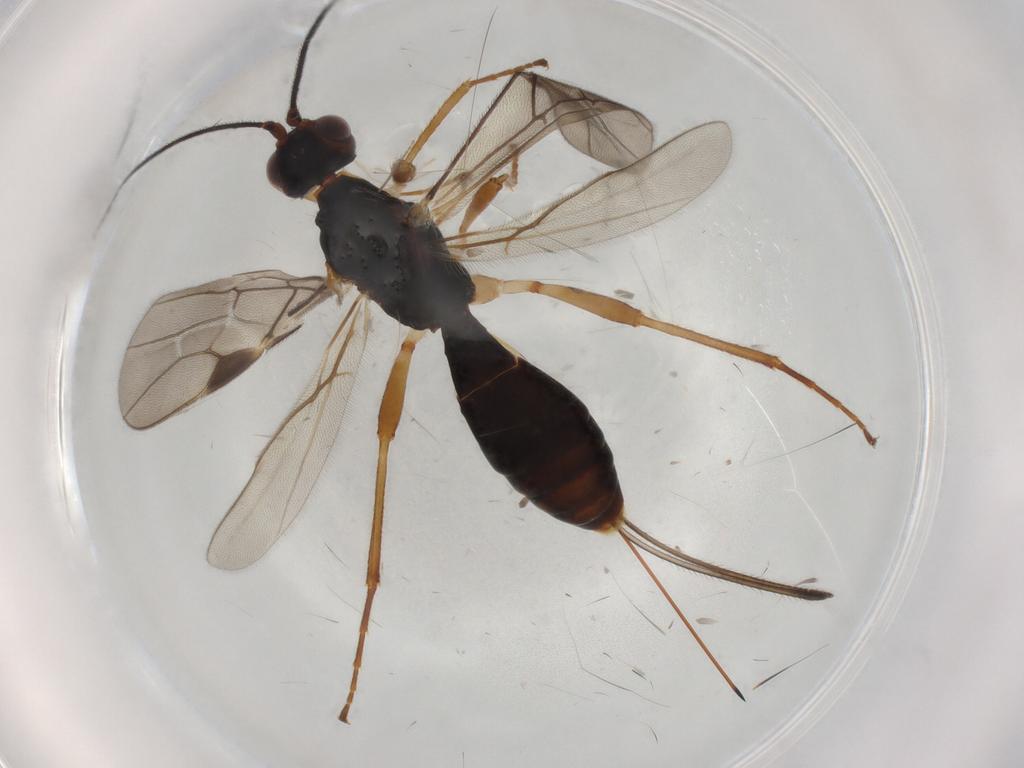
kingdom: Animalia
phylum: Arthropoda
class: Insecta
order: Hymenoptera
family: Braconidae
